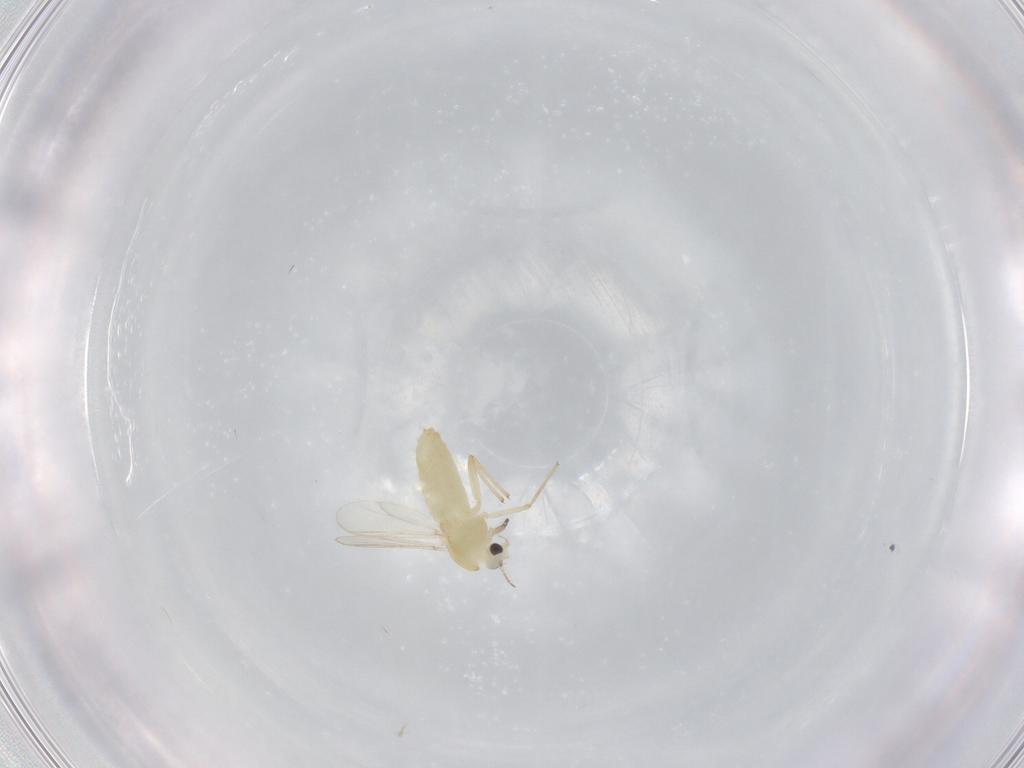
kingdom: Animalia
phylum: Arthropoda
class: Insecta
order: Diptera
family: Chironomidae
